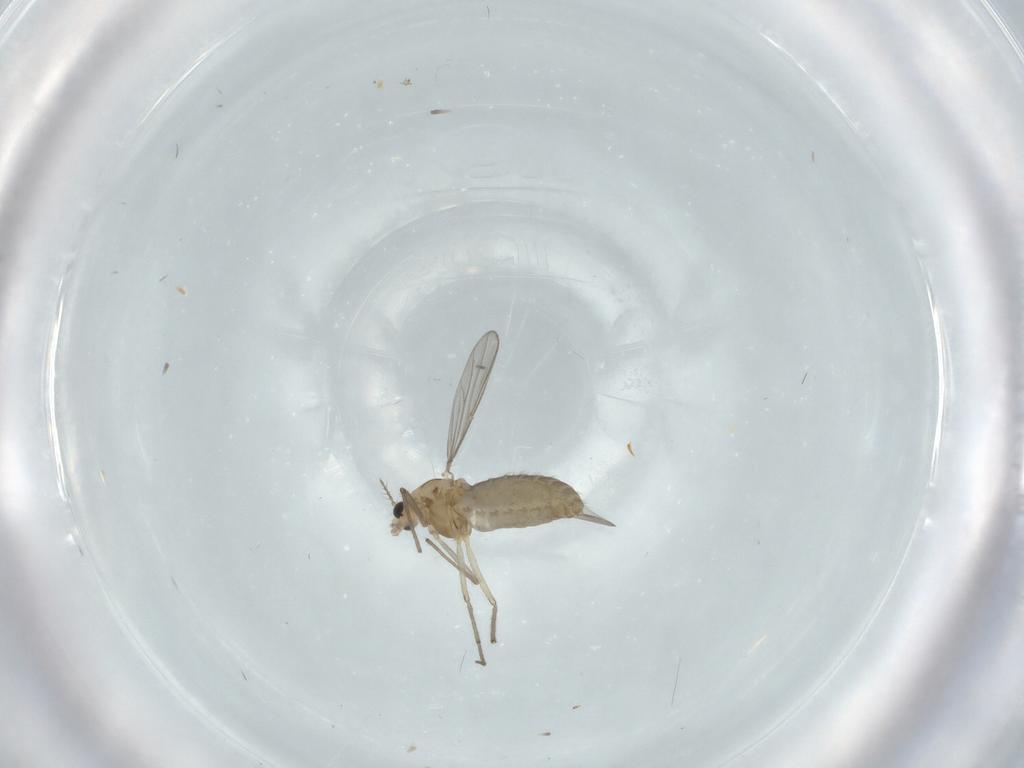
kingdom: Animalia
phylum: Arthropoda
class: Insecta
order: Diptera
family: Chironomidae
